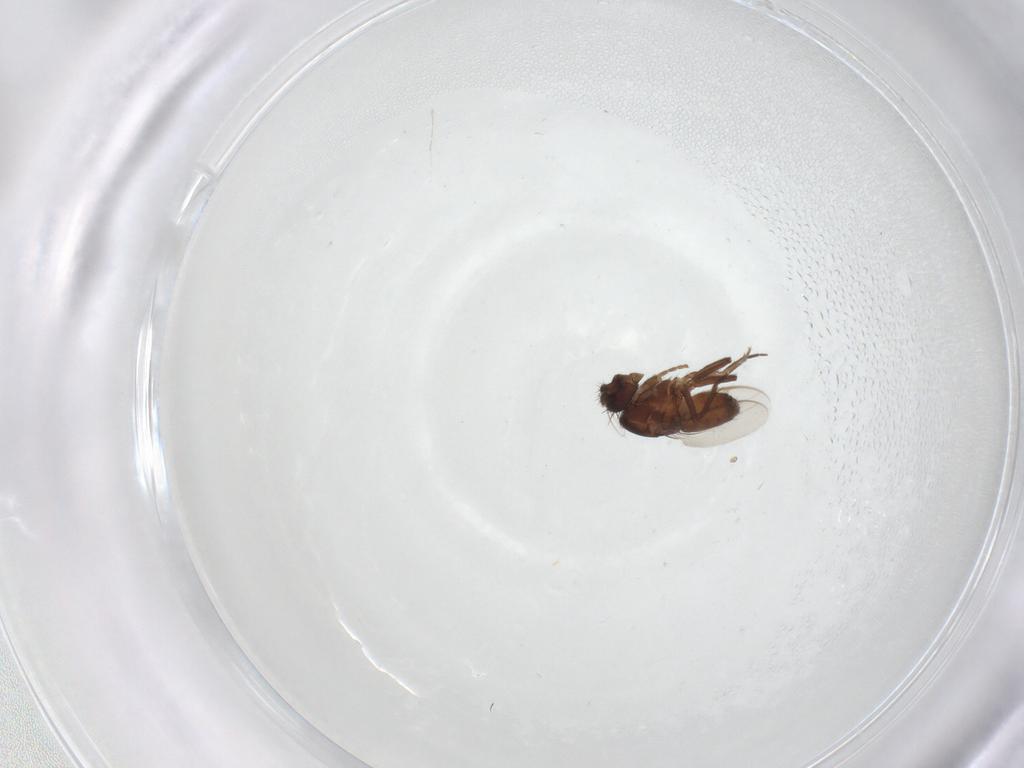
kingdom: Animalia
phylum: Arthropoda
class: Insecta
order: Diptera
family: Sphaeroceridae
